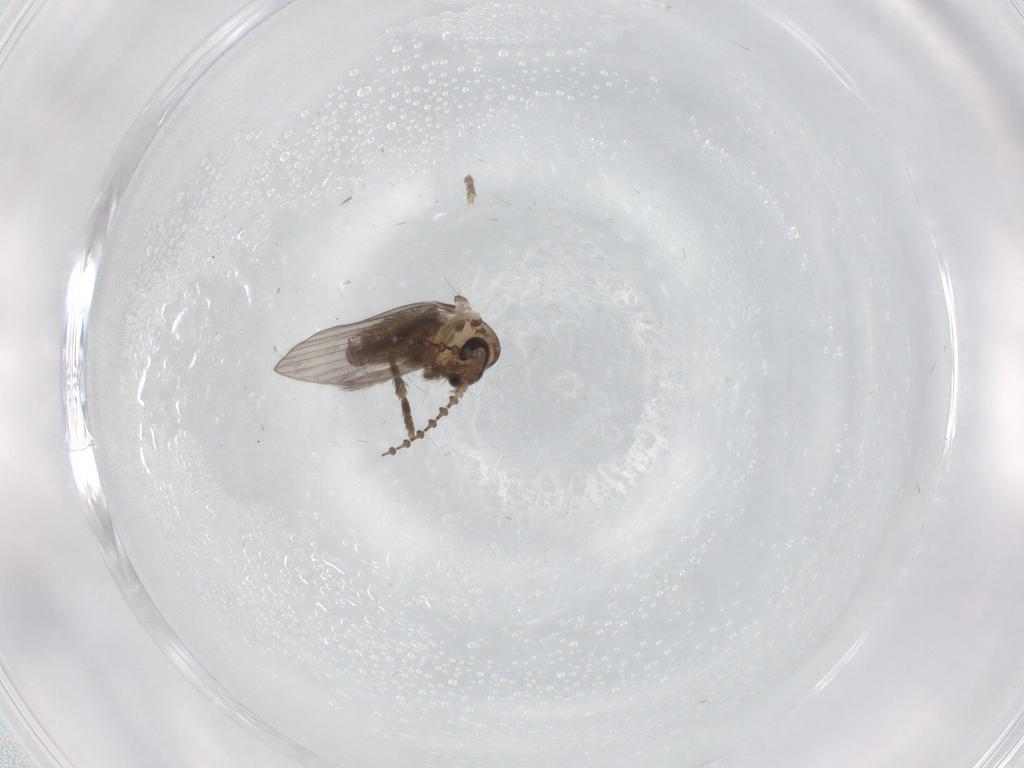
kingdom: Animalia
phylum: Arthropoda
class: Insecta
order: Diptera
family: Psychodidae
